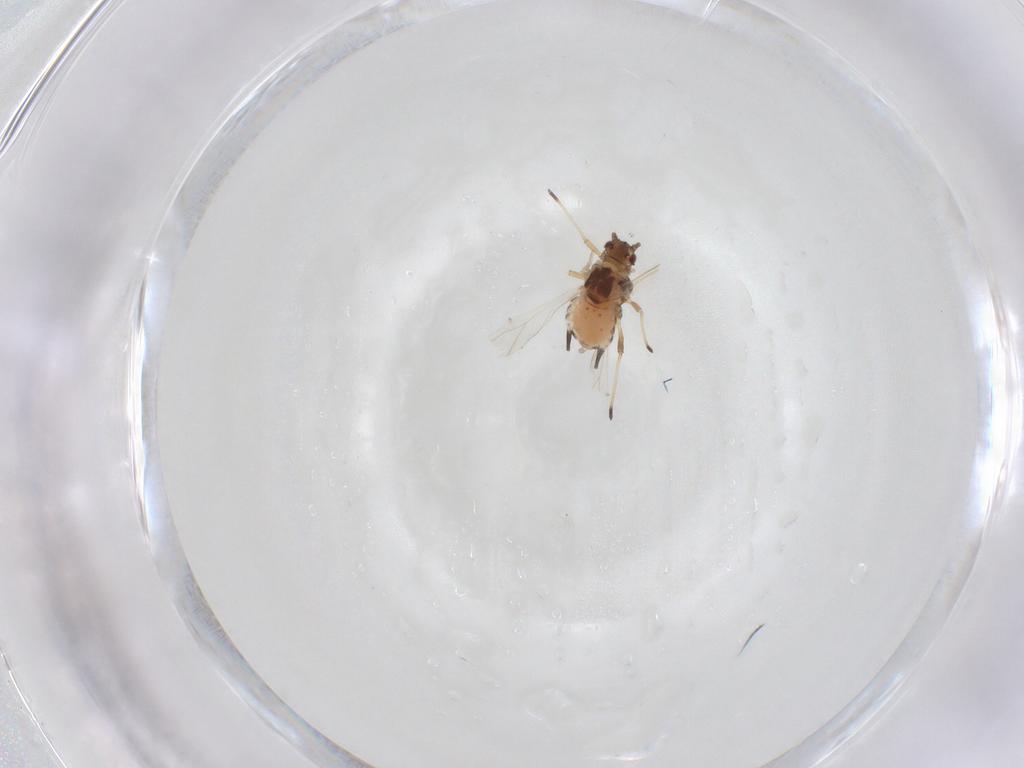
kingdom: Animalia
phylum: Arthropoda
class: Insecta
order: Hemiptera
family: Aphididae
